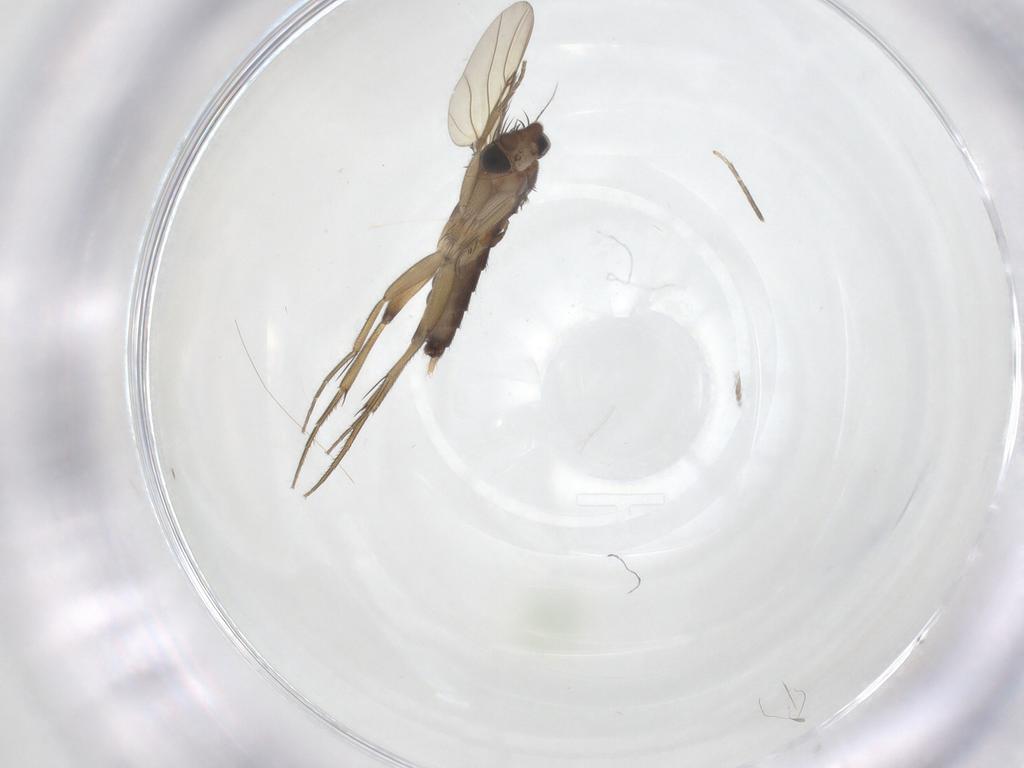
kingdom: Animalia
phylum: Arthropoda
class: Insecta
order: Diptera
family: Phoridae
